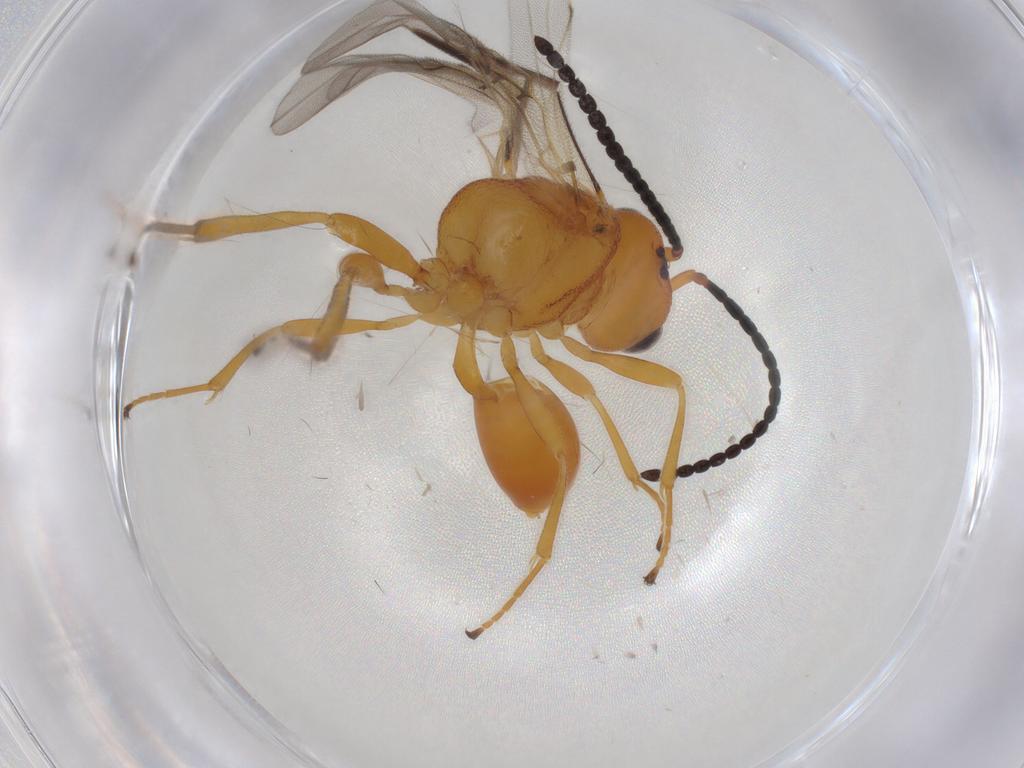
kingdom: Animalia
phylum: Arthropoda
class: Insecta
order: Hymenoptera
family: Braconidae
